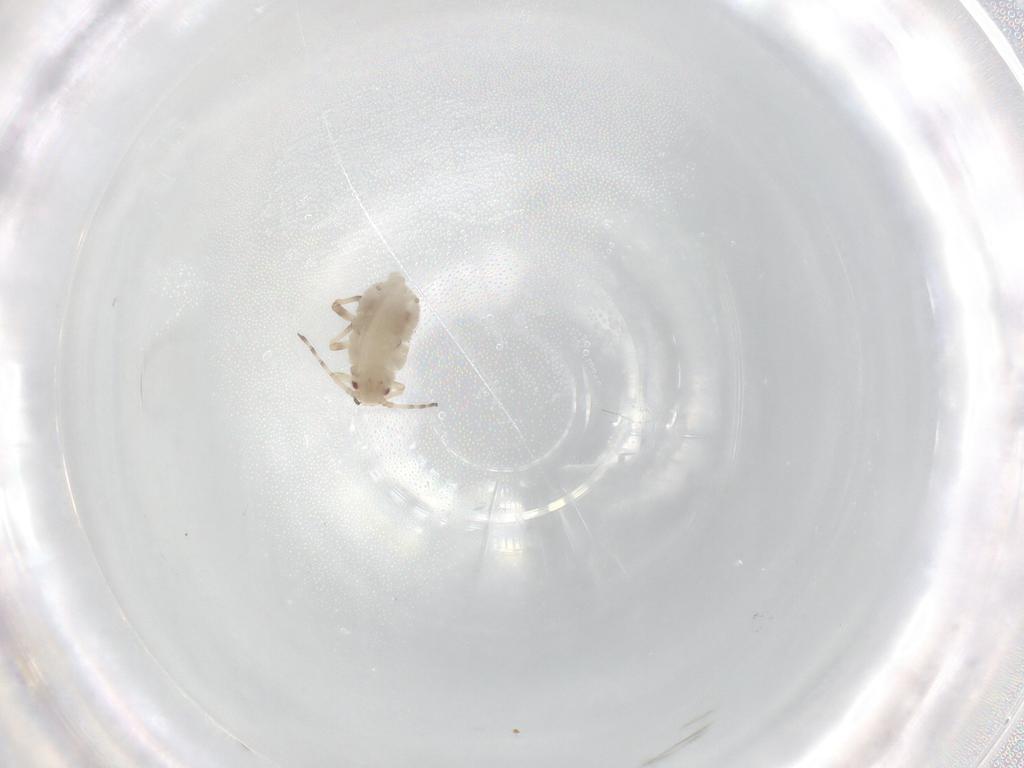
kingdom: Animalia
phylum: Arthropoda
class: Insecta
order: Hemiptera
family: Aphididae
